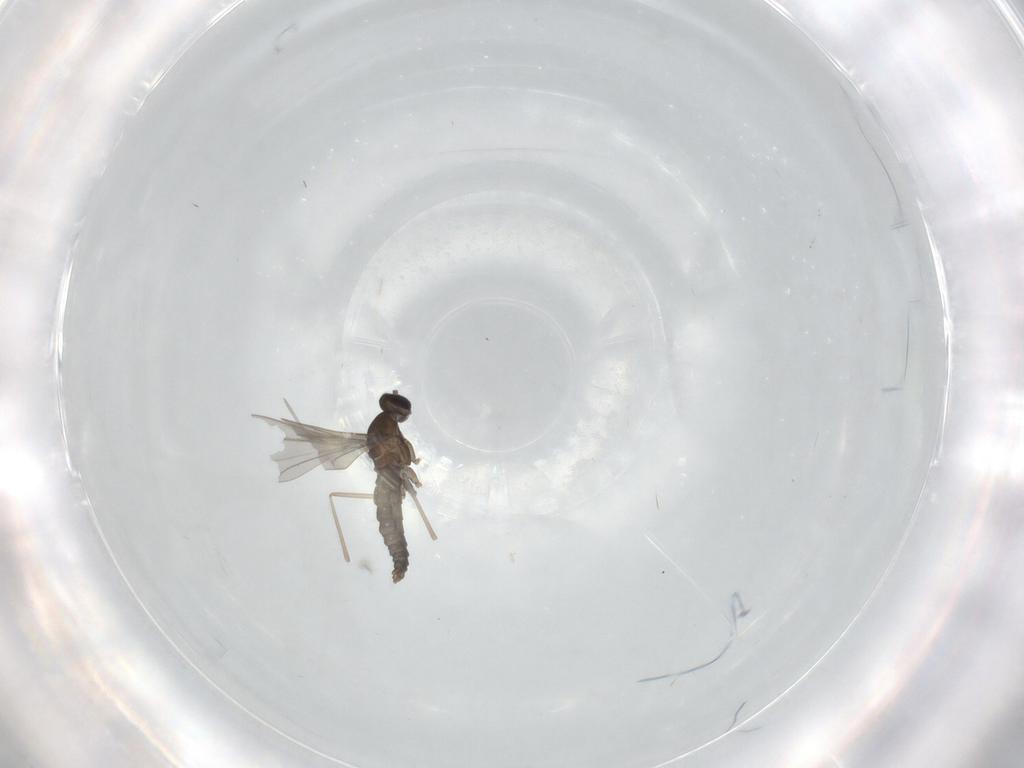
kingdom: Animalia
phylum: Arthropoda
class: Insecta
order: Diptera
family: Cecidomyiidae
